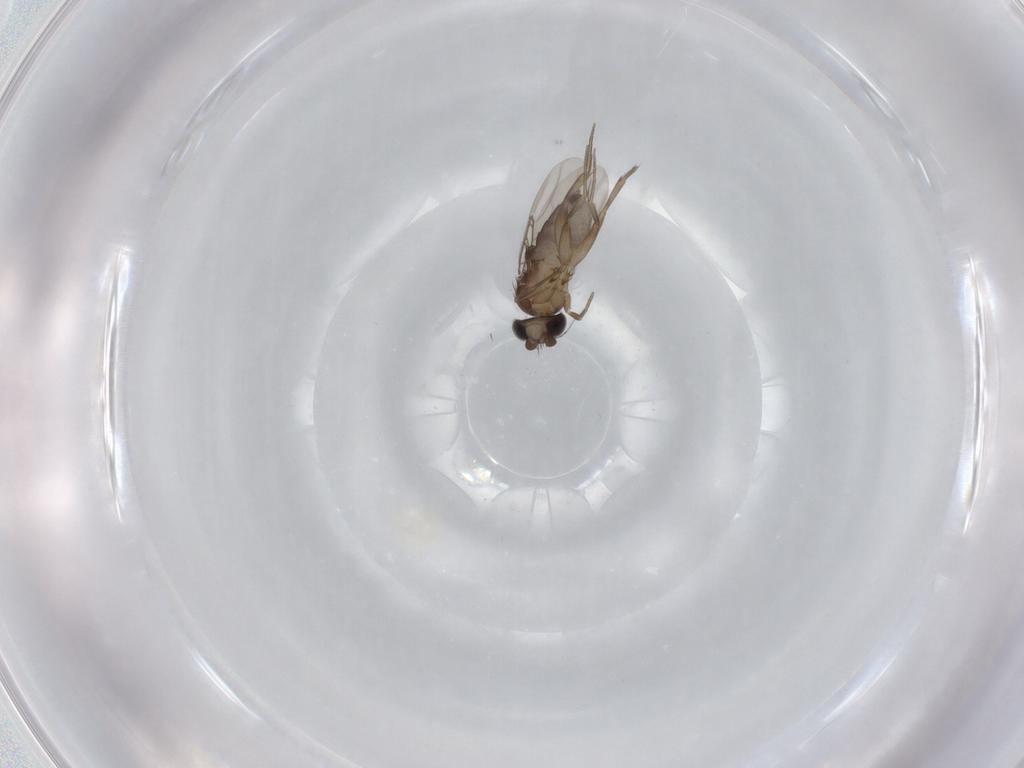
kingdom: Animalia
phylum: Arthropoda
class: Insecta
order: Diptera
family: Phoridae
